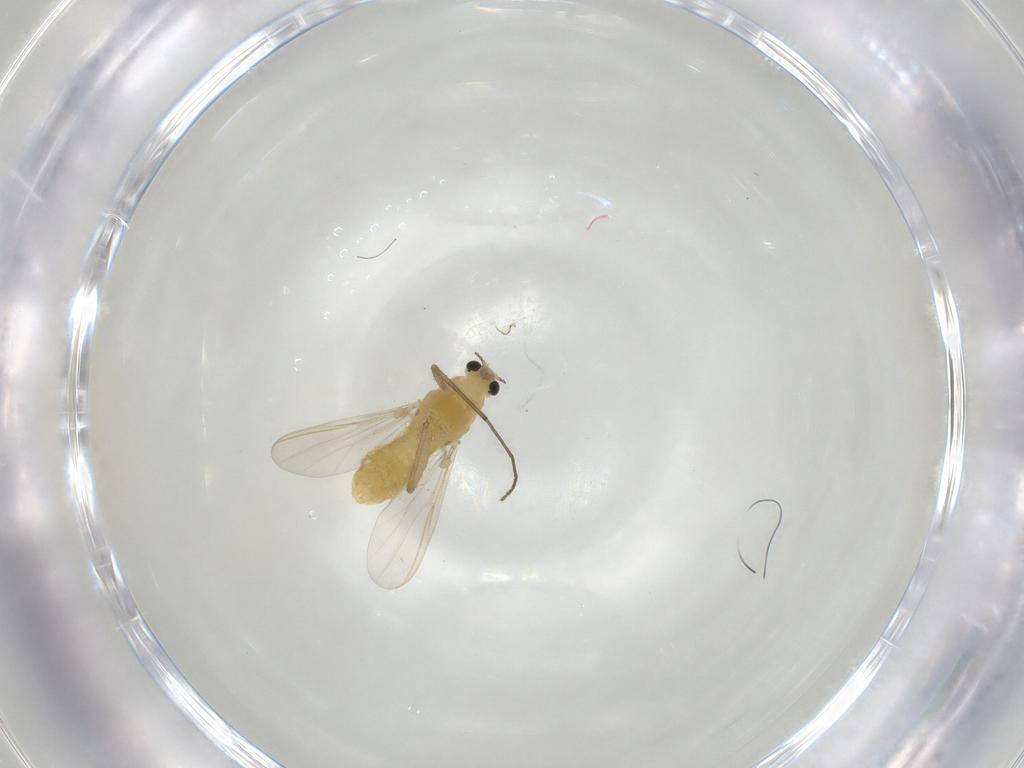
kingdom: Animalia
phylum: Arthropoda
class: Insecta
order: Diptera
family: Chironomidae
